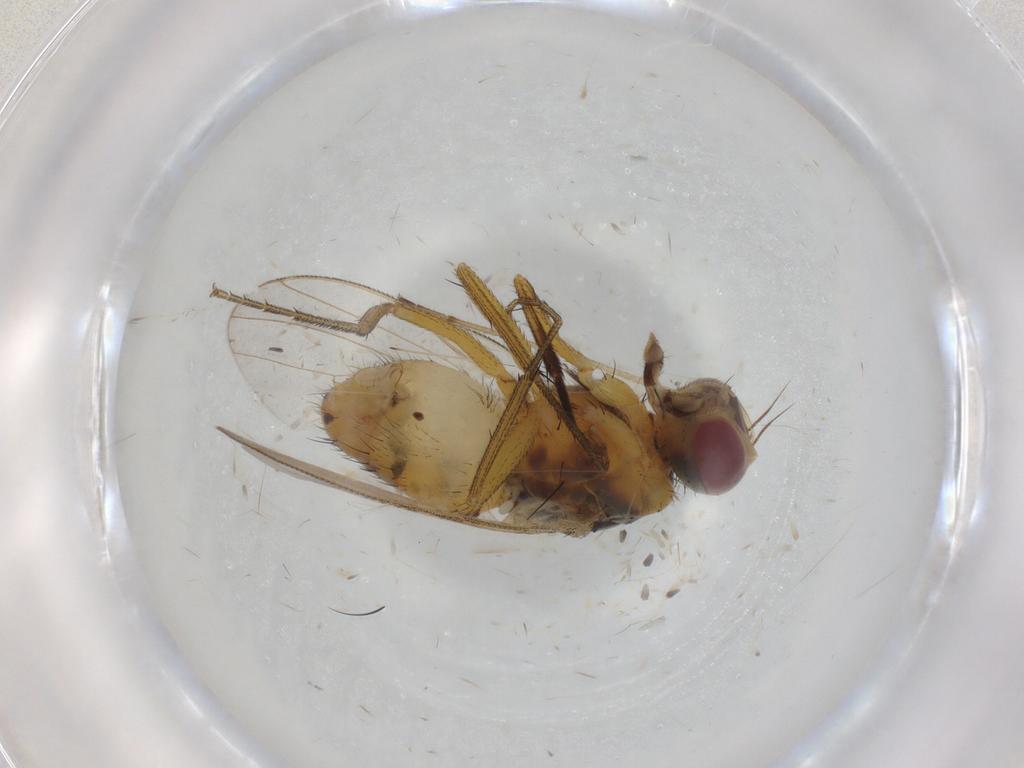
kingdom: Animalia
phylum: Arthropoda
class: Insecta
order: Diptera
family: Muscidae
